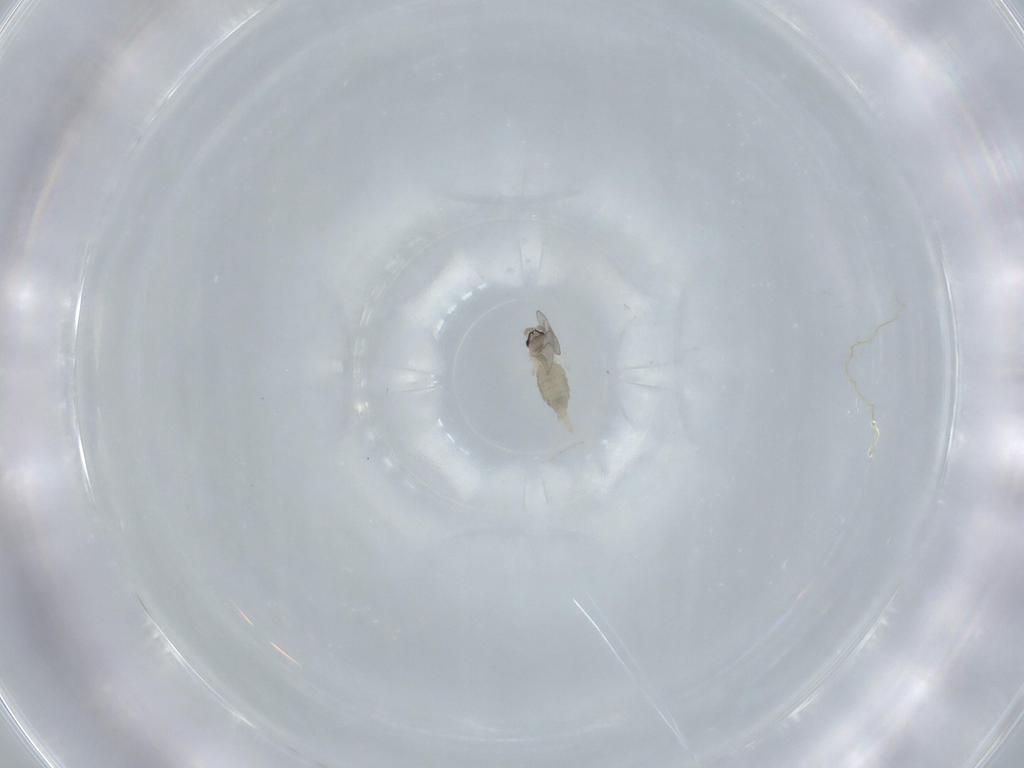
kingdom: Animalia
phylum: Arthropoda
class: Insecta
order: Diptera
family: Cecidomyiidae
